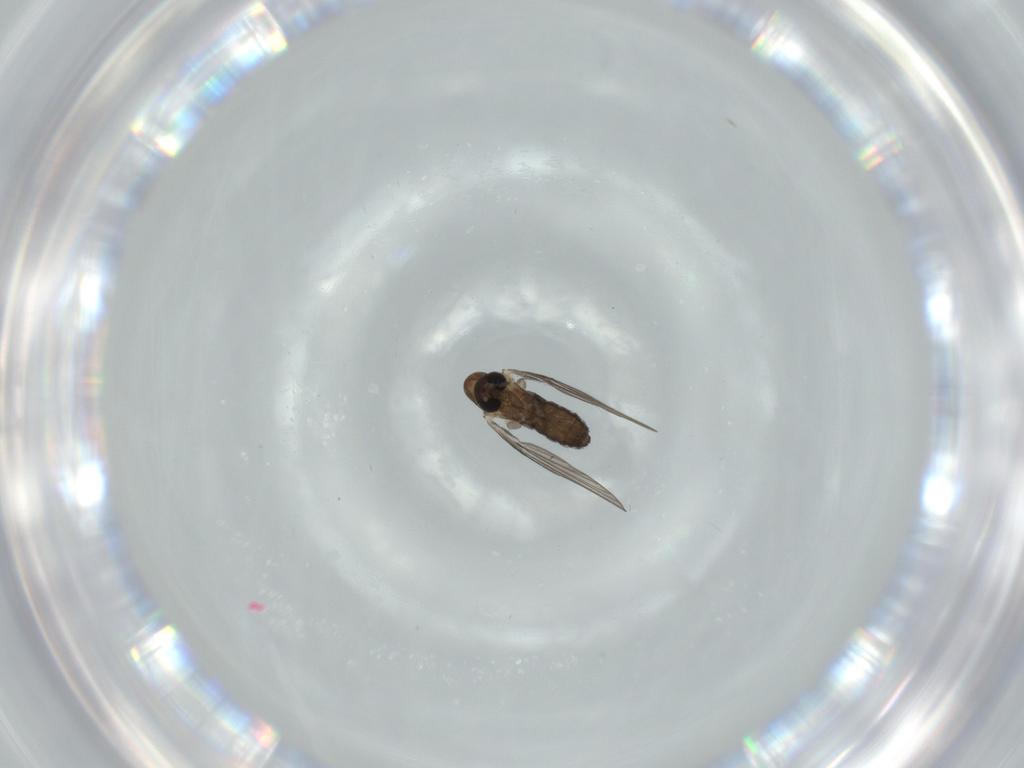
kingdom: Animalia
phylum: Arthropoda
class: Insecta
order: Diptera
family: Psychodidae
